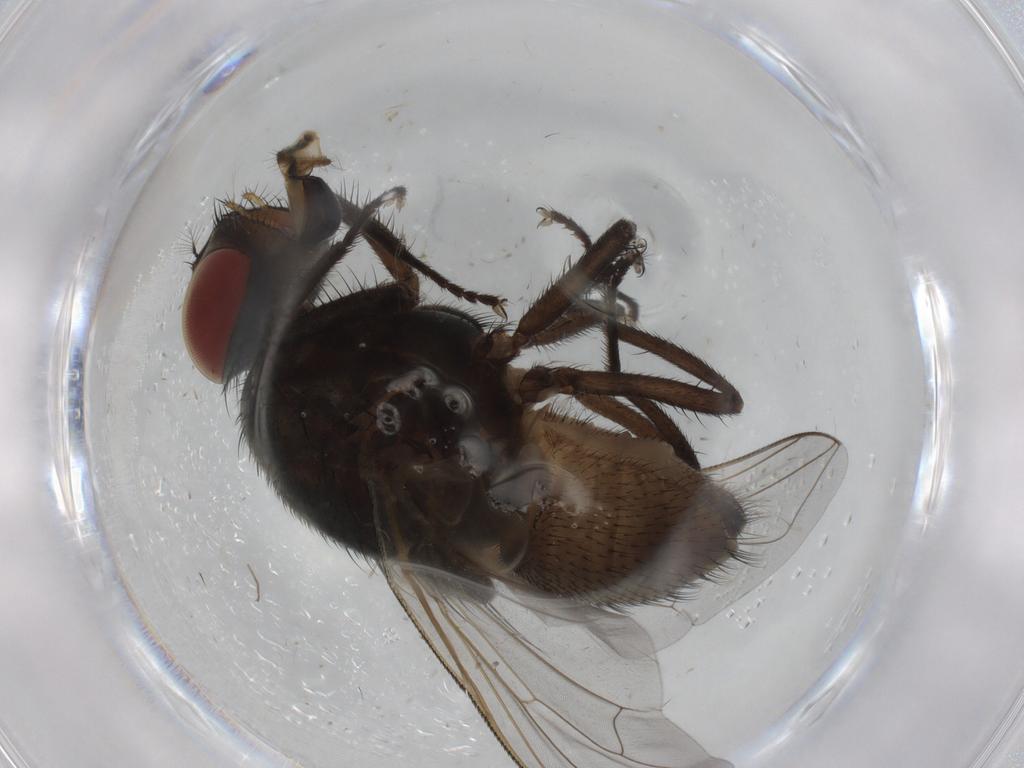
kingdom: Animalia
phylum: Arthropoda
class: Insecta
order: Diptera
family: Muscidae
